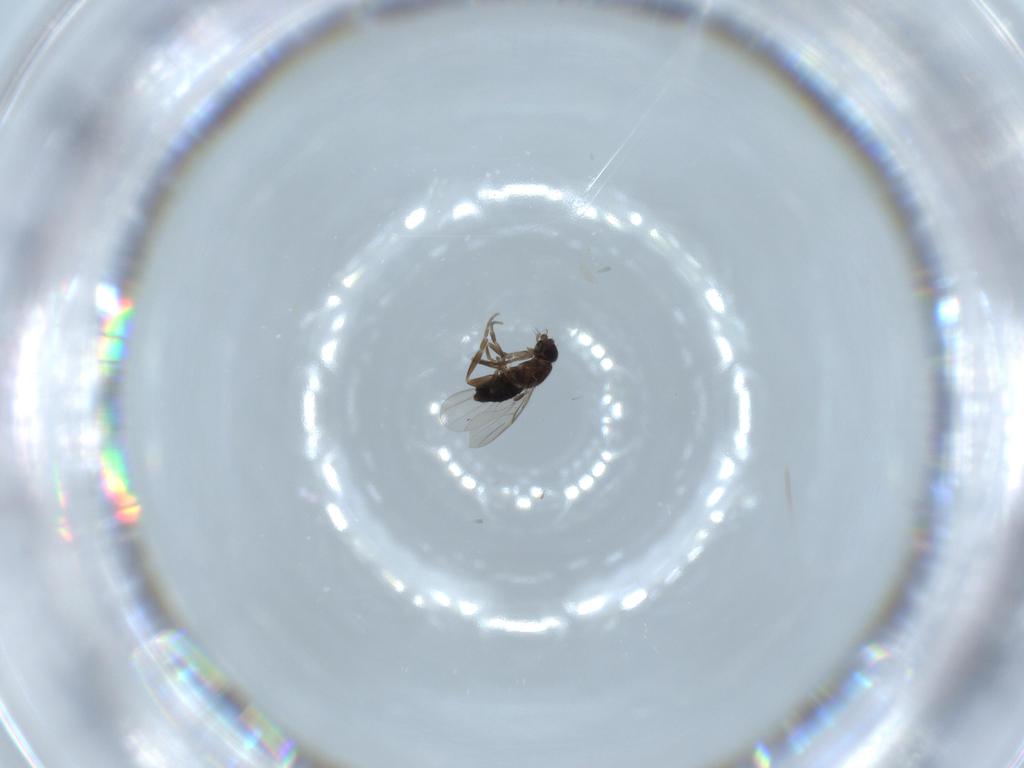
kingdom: Animalia
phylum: Arthropoda
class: Insecta
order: Diptera
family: Phoridae
